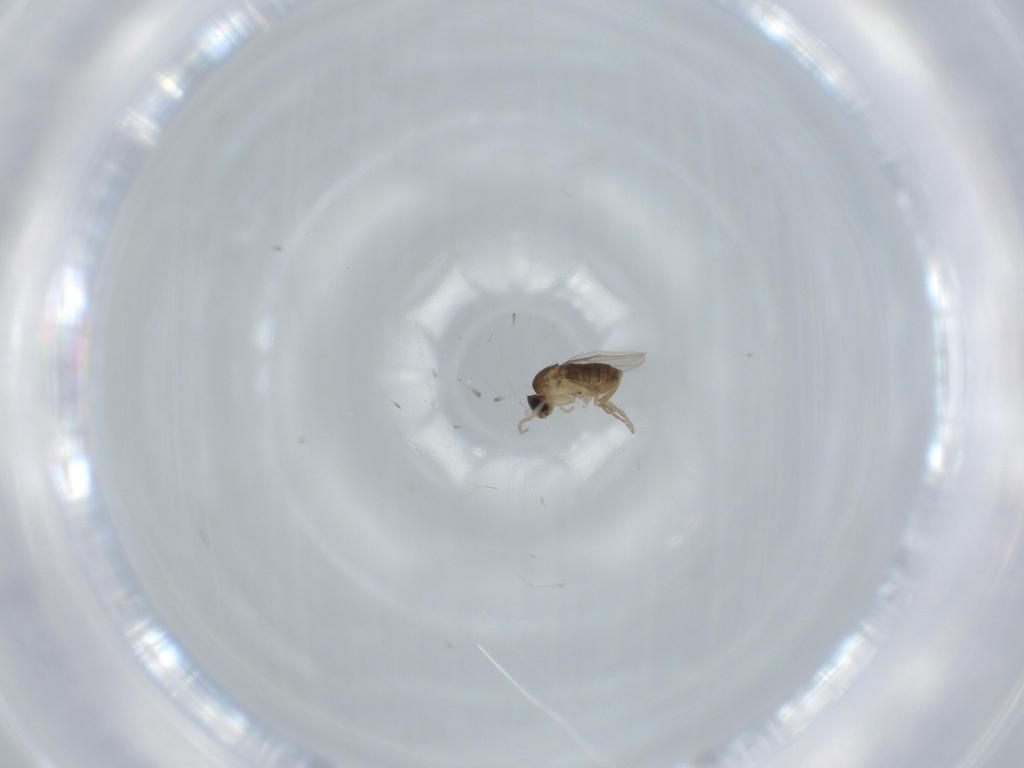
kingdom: Animalia
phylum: Arthropoda
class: Insecta
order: Diptera
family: Phoridae
